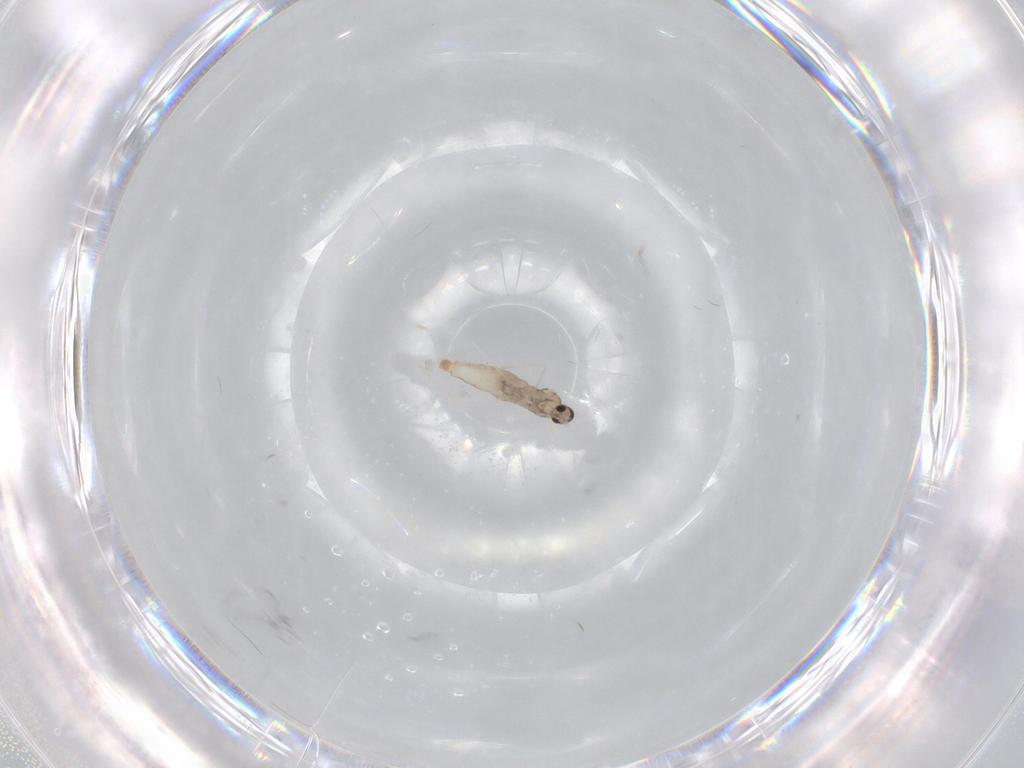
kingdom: Animalia
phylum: Arthropoda
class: Insecta
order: Diptera
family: Cecidomyiidae
